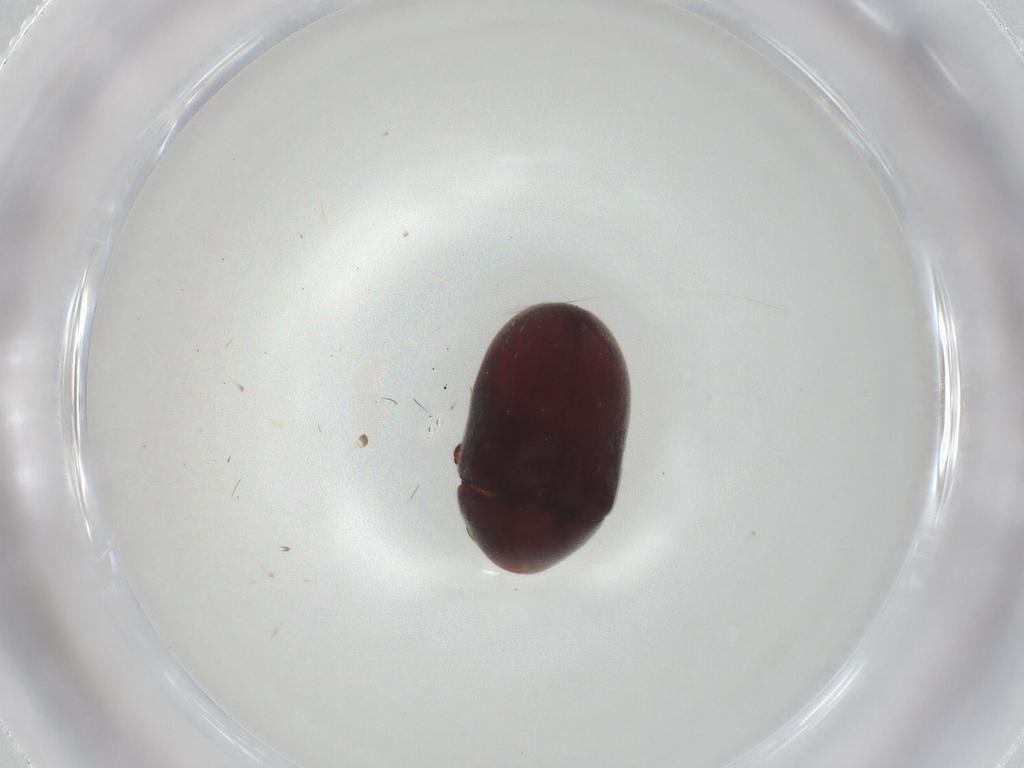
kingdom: Animalia
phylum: Arthropoda
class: Insecta
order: Coleoptera
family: Ptinidae
